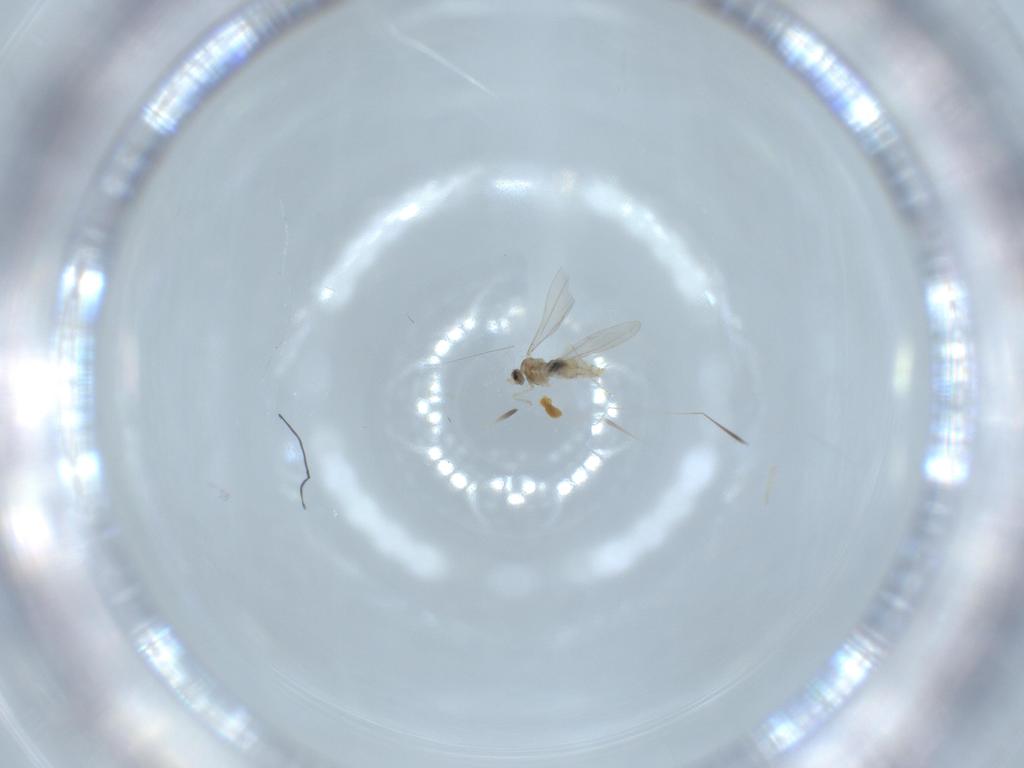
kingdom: Animalia
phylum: Arthropoda
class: Insecta
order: Diptera
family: Cecidomyiidae
